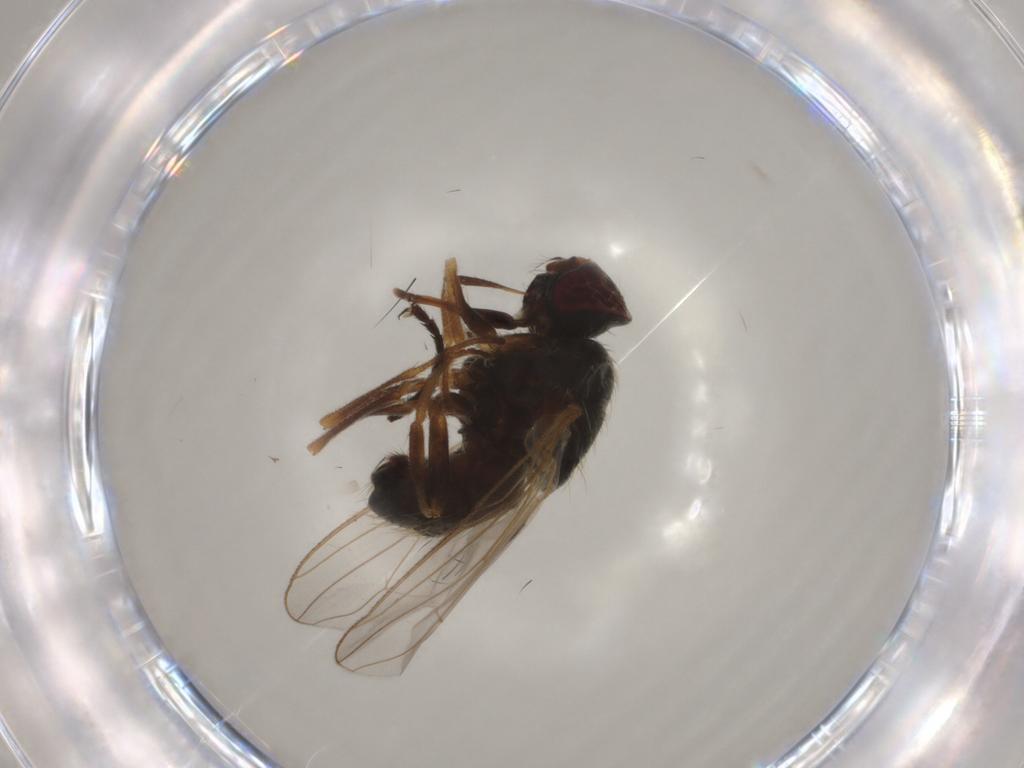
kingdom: Animalia
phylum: Arthropoda
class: Insecta
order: Diptera
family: Muscidae
